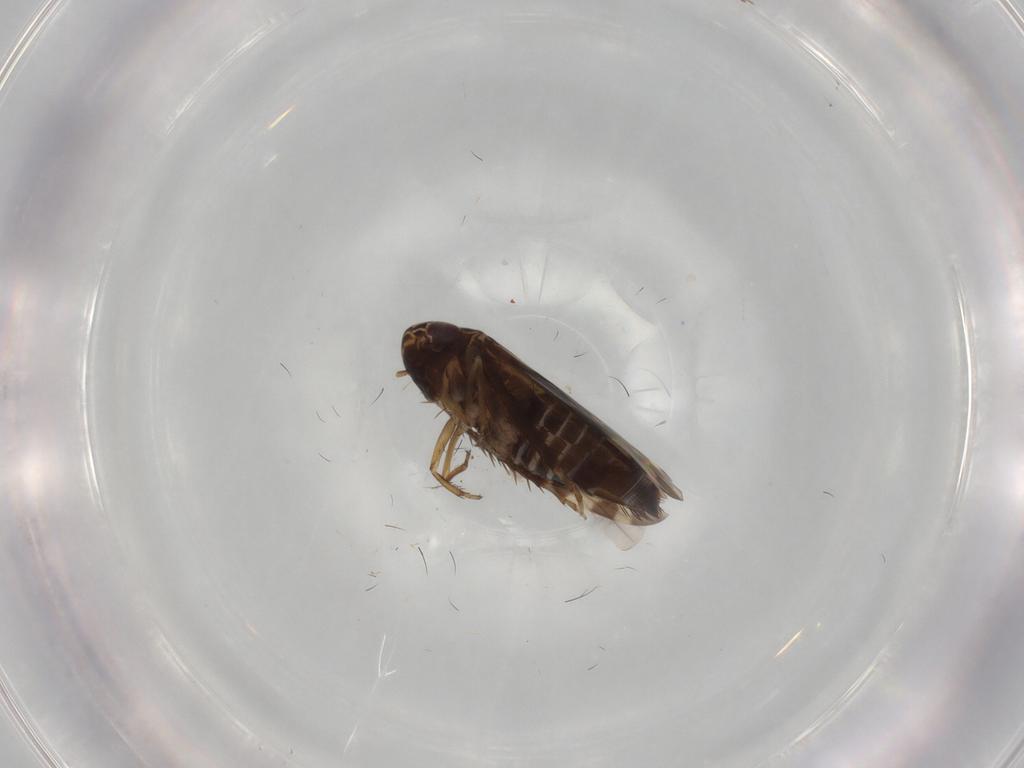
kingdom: Animalia
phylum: Arthropoda
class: Insecta
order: Hemiptera
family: Cicadellidae
